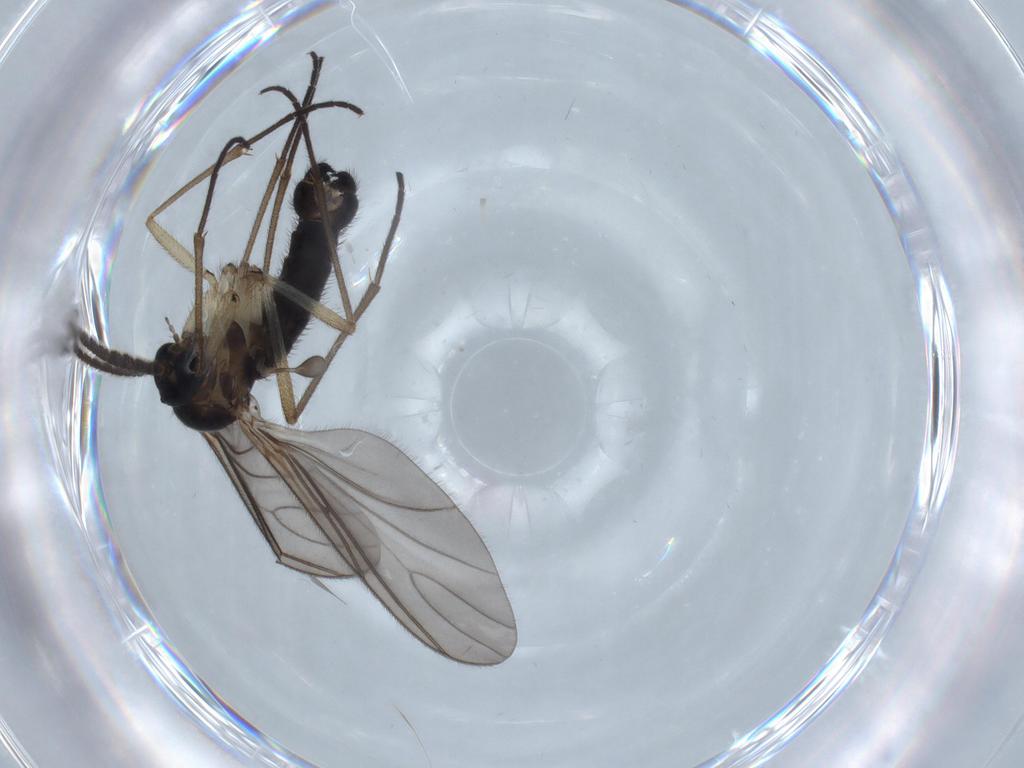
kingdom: Animalia
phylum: Arthropoda
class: Insecta
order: Diptera
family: Sciaridae
